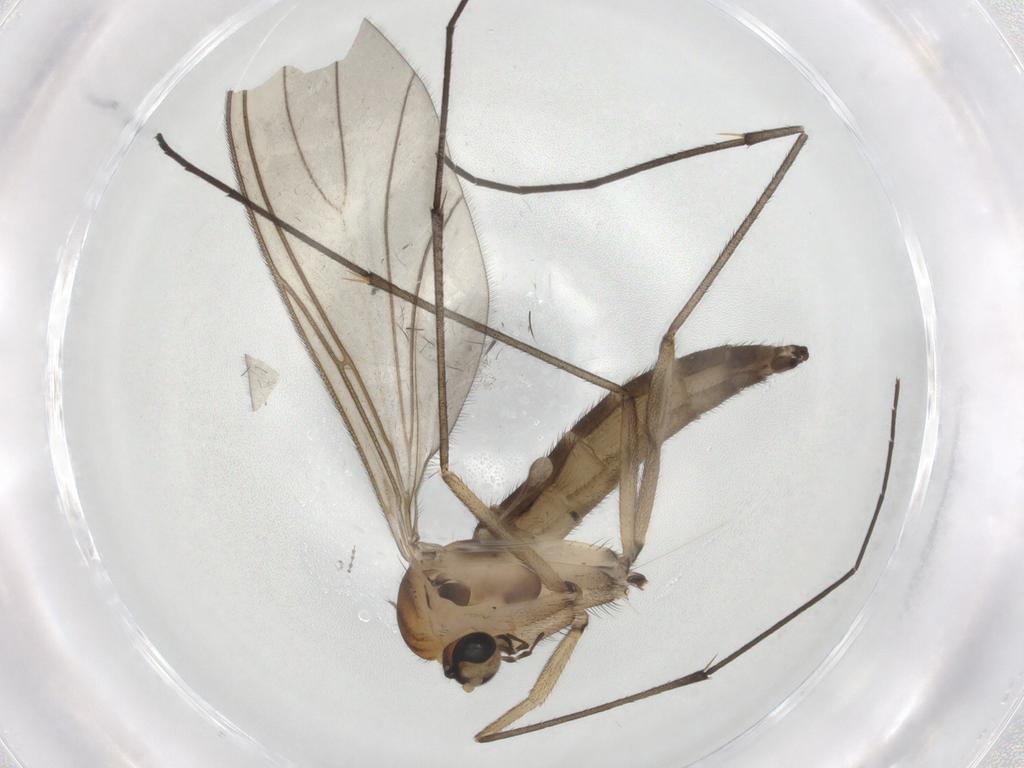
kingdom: Animalia
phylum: Arthropoda
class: Insecta
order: Diptera
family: Sciaridae
